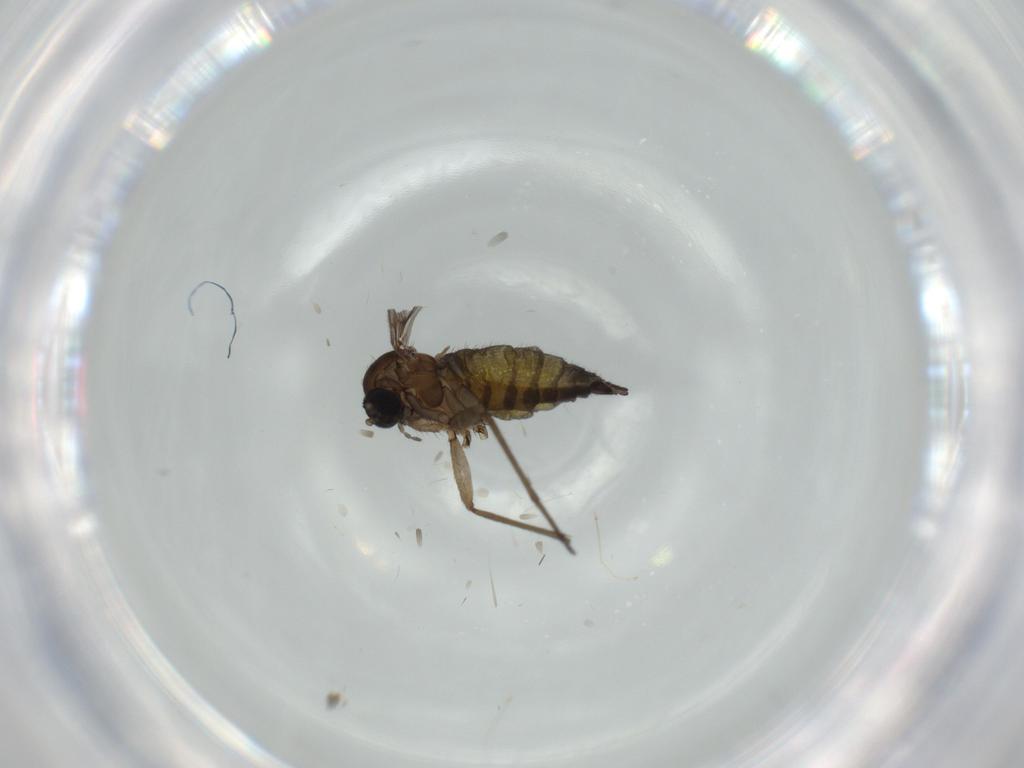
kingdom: Animalia
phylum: Arthropoda
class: Insecta
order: Diptera
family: Sciaridae
